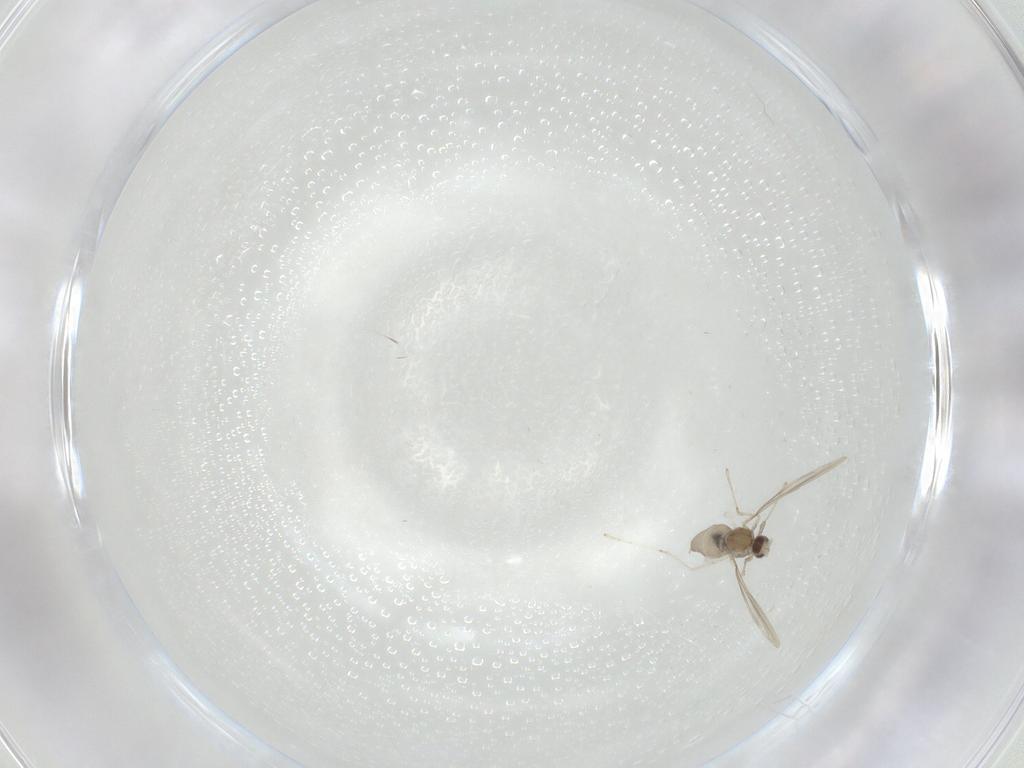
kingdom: Animalia
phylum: Arthropoda
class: Insecta
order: Diptera
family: Cecidomyiidae
